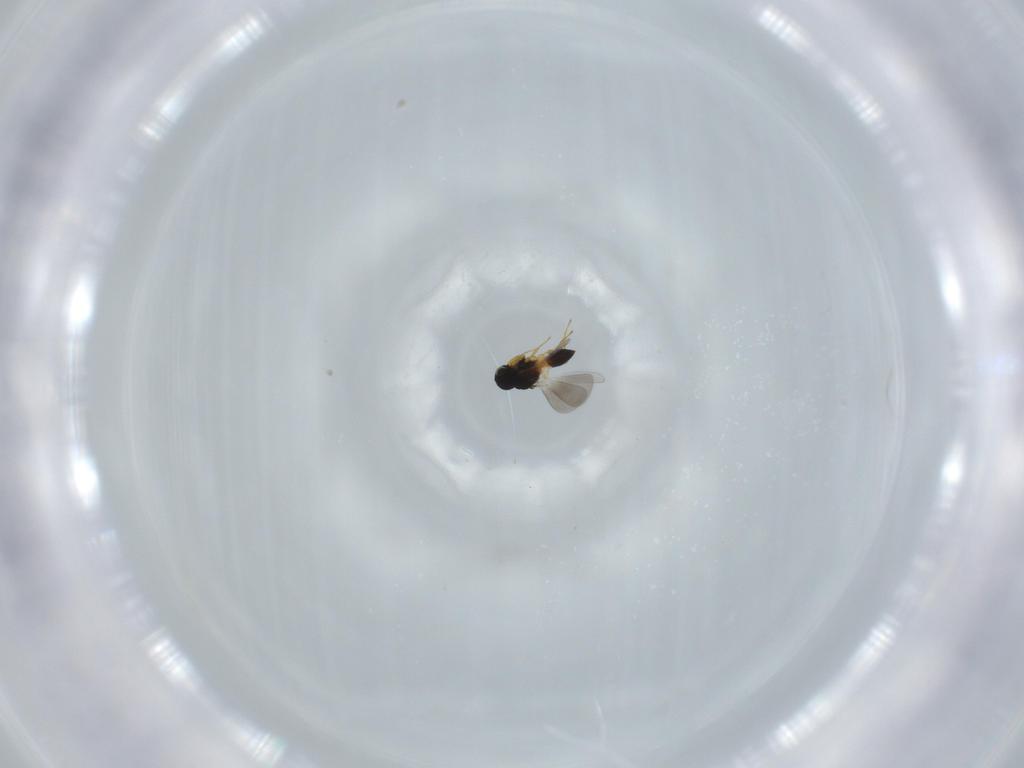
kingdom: Animalia
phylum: Arthropoda
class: Insecta
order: Hymenoptera
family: Platygastridae
